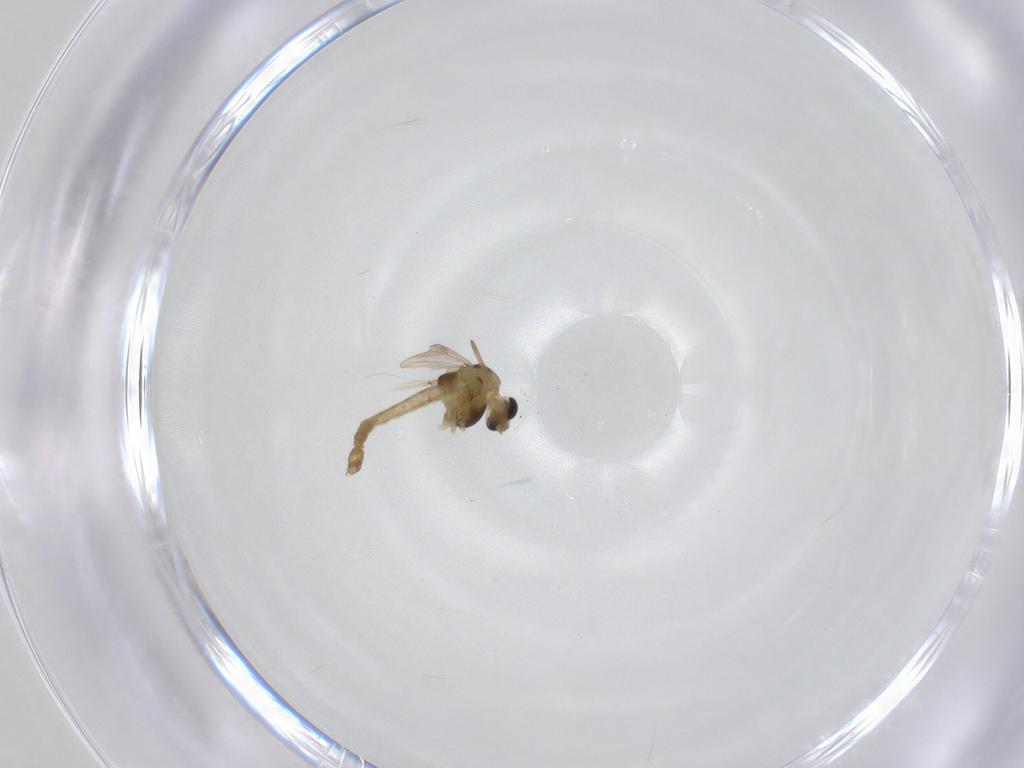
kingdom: Animalia
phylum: Arthropoda
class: Insecta
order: Diptera
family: Chironomidae
